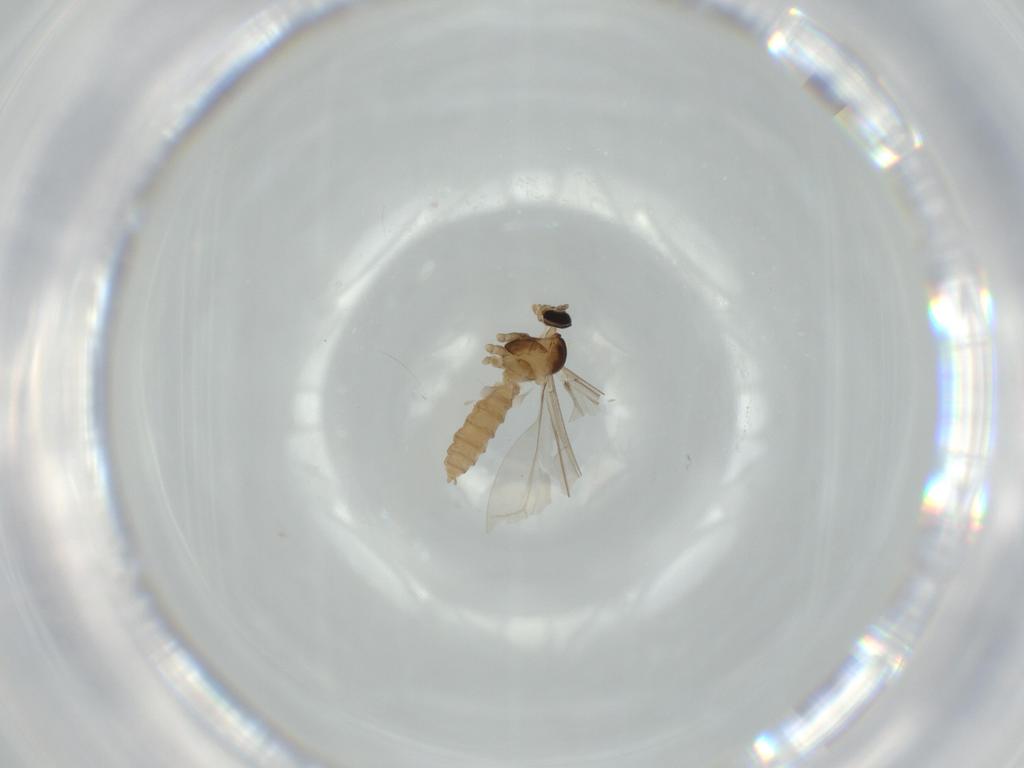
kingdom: Animalia
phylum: Arthropoda
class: Insecta
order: Diptera
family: Cecidomyiidae
